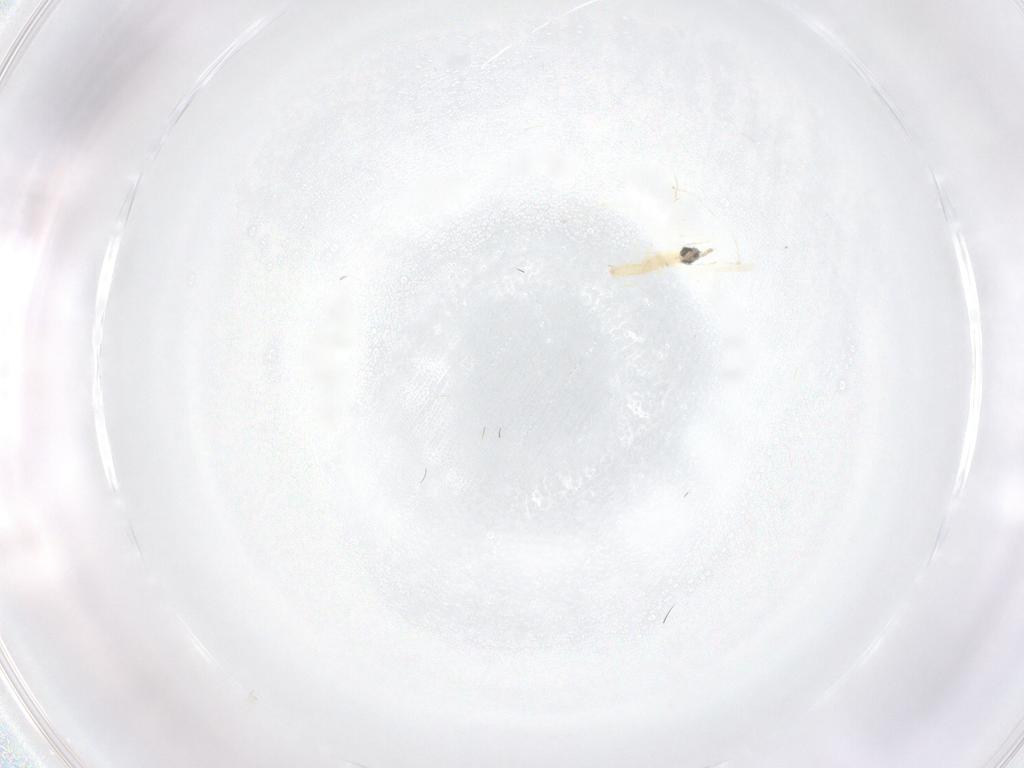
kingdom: Animalia
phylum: Arthropoda
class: Insecta
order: Diptera
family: Cecidomyiidae
